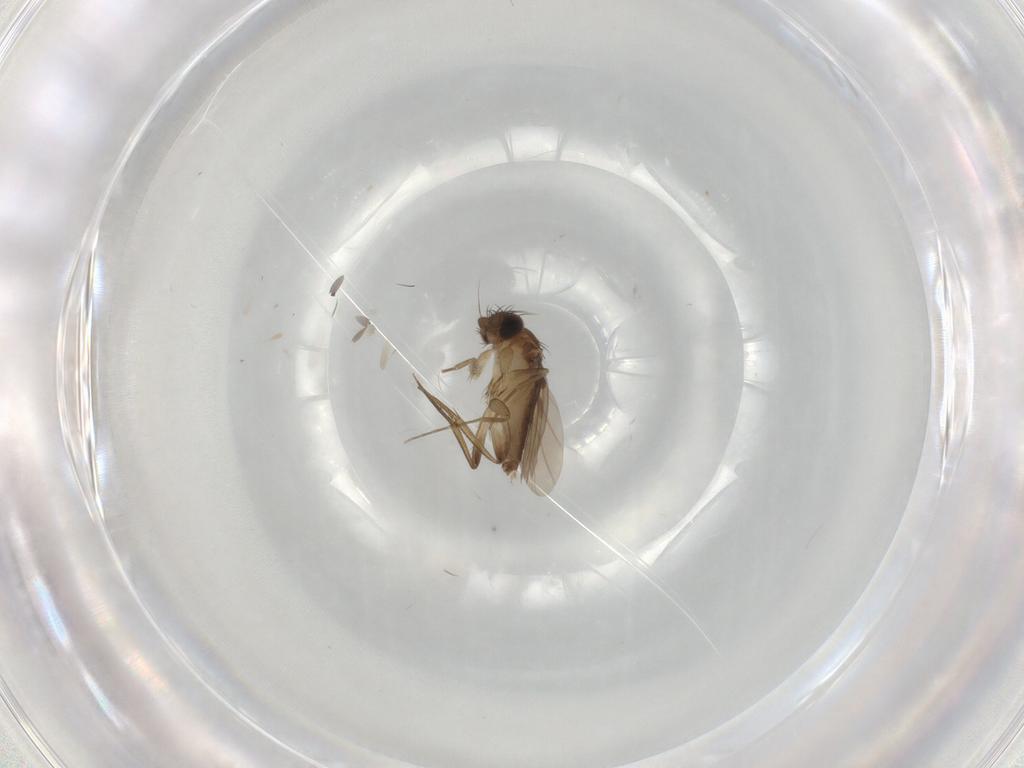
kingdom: Animalia
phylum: Arthropoda
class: Insecta
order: Diptera
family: Phoridae
